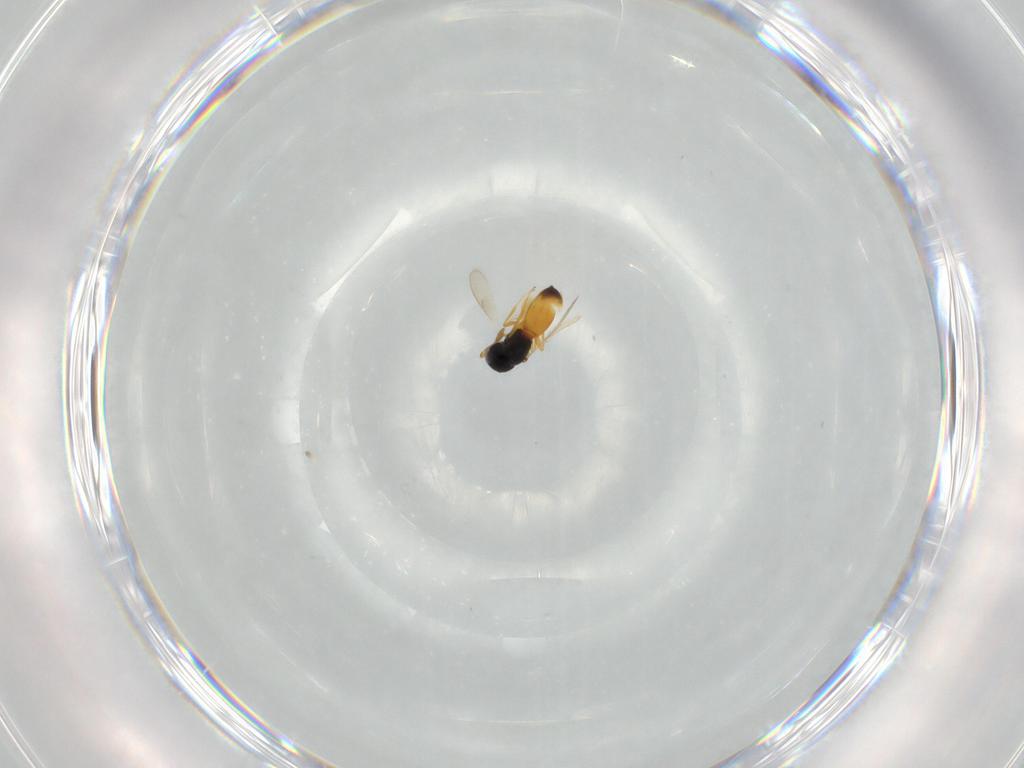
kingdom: Animalia
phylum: Arthropoda
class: Insecta
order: Hymenoptera
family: Scelionidae
